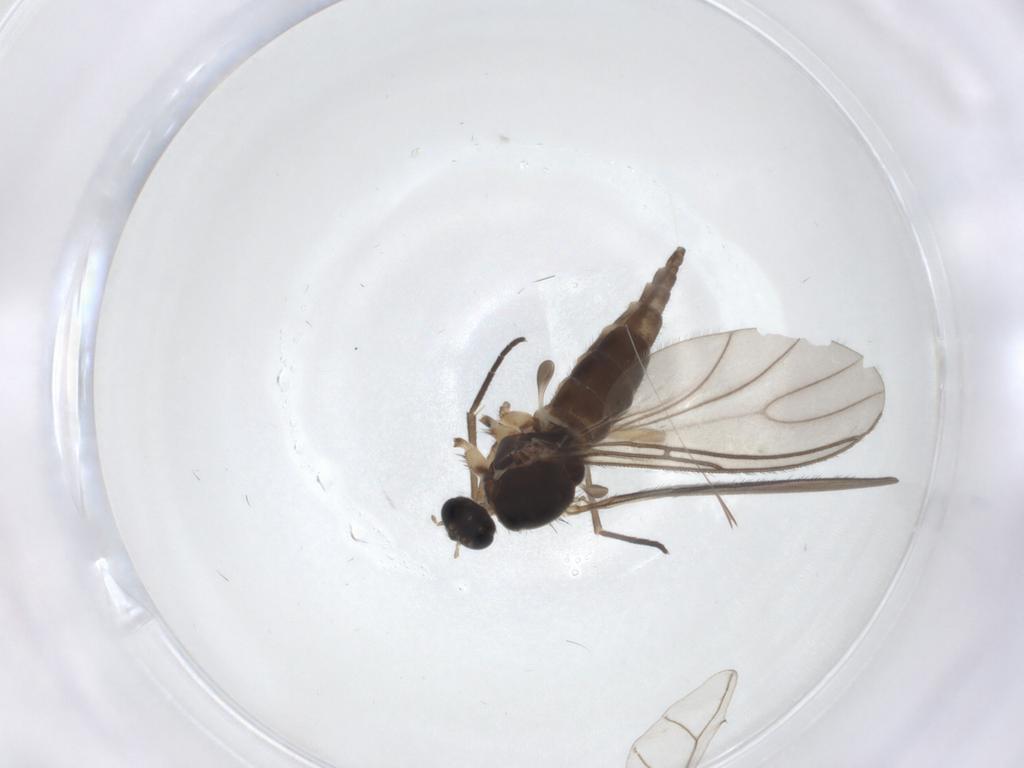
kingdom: Animalia
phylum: Arthropoda
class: Insecta
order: Diptera
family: Sciaridae
